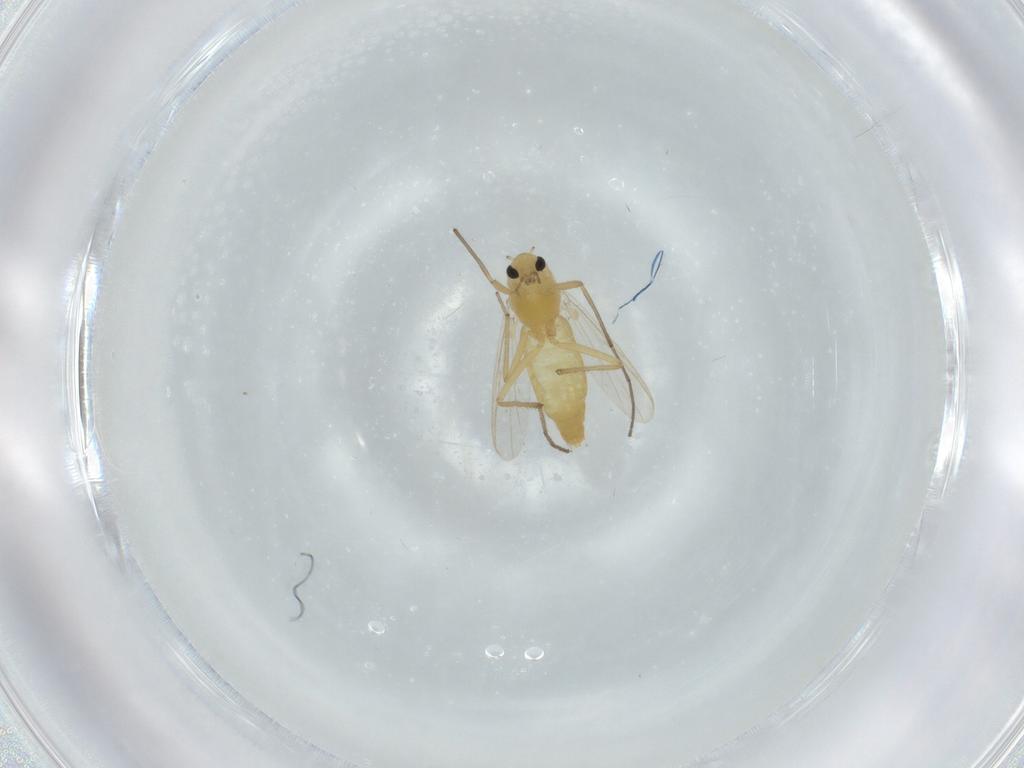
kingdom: Animalia
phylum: Arthropoda
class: Insecta
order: Diptera
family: Chironomidae
